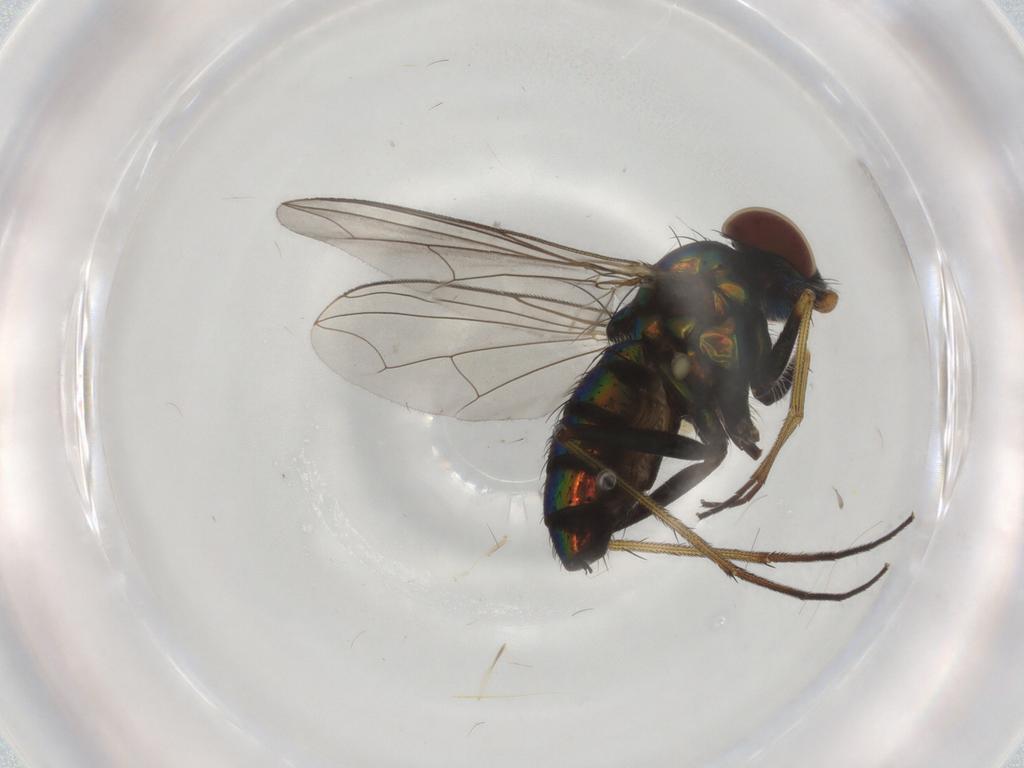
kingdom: Animalia
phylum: Arthropoda
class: Insecta
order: Diptera
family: Dolichopodidae
